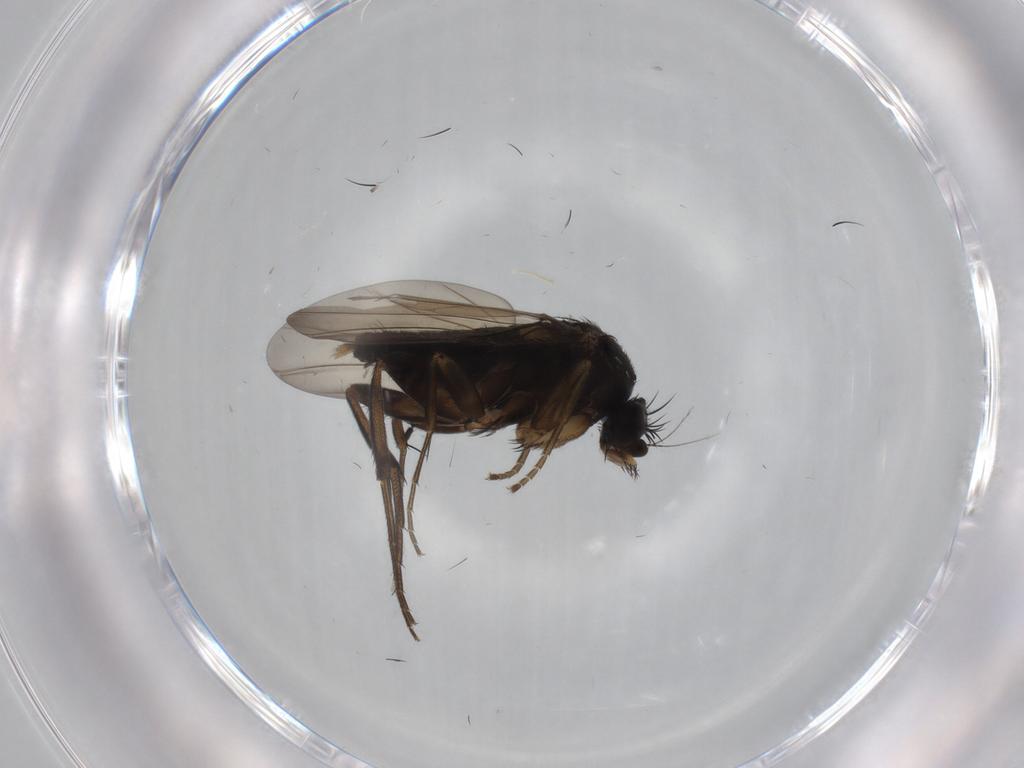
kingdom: Animalia
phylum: Arthropoda
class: Insecta
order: Diptera
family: Phoridae
